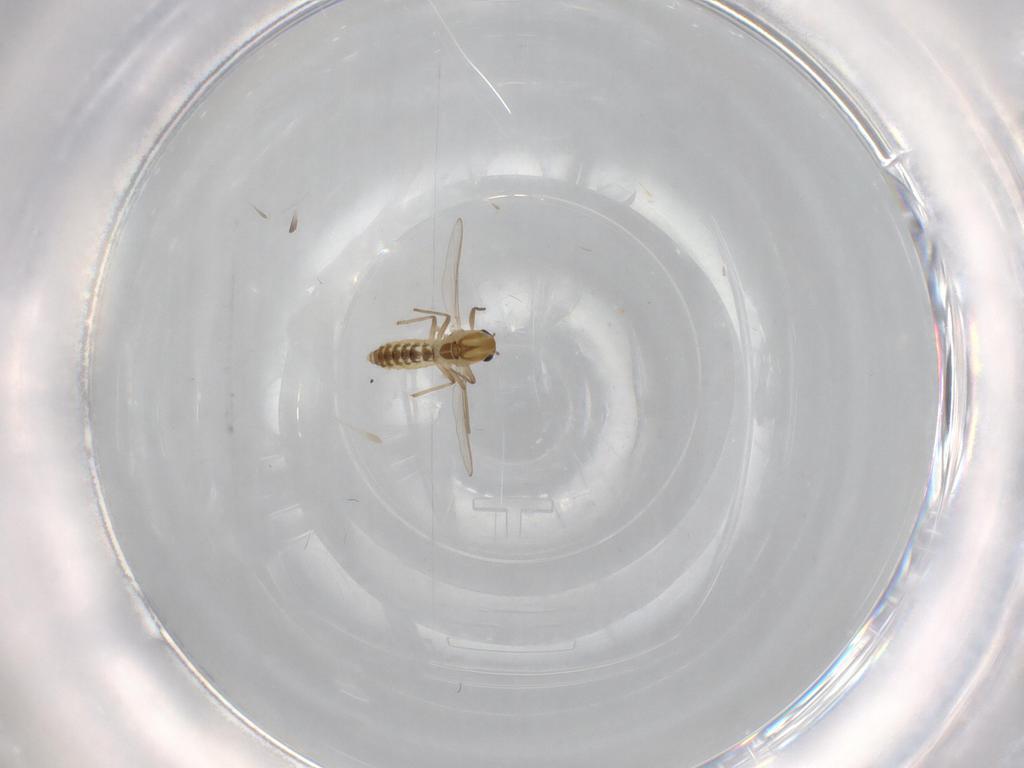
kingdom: Animalia
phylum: Arthropoda
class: Insecta
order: Diptera
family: Chironomidae
